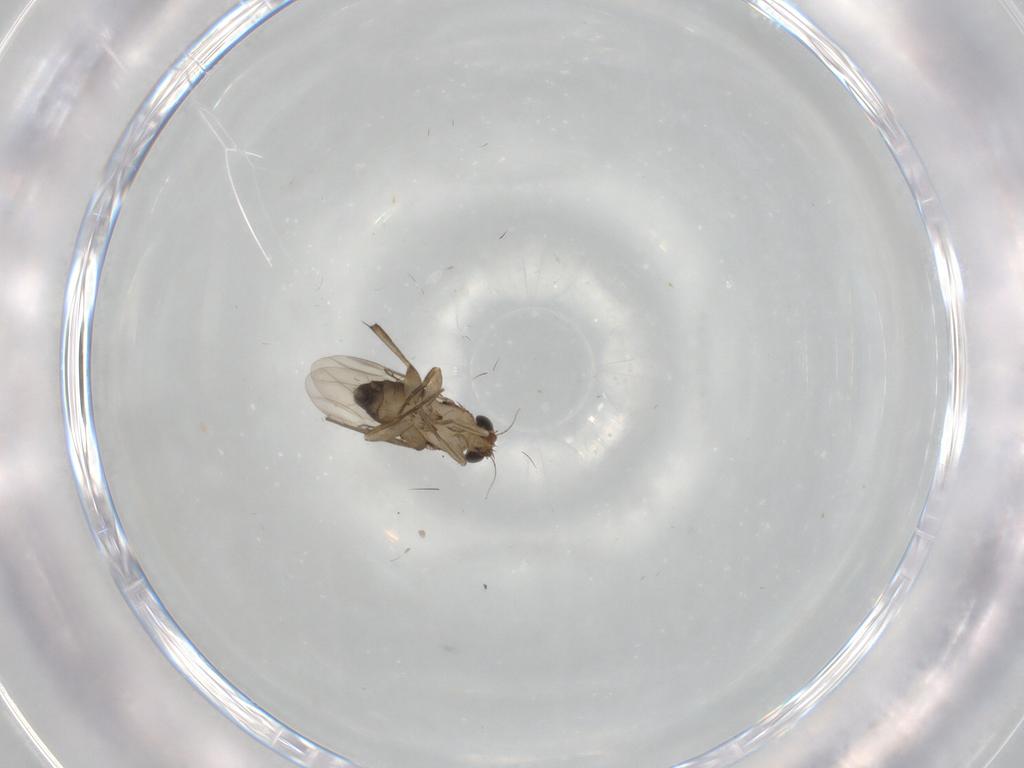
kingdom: Animalia
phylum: Arthropoda
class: Insecta
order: Diptera
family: Phoridae
